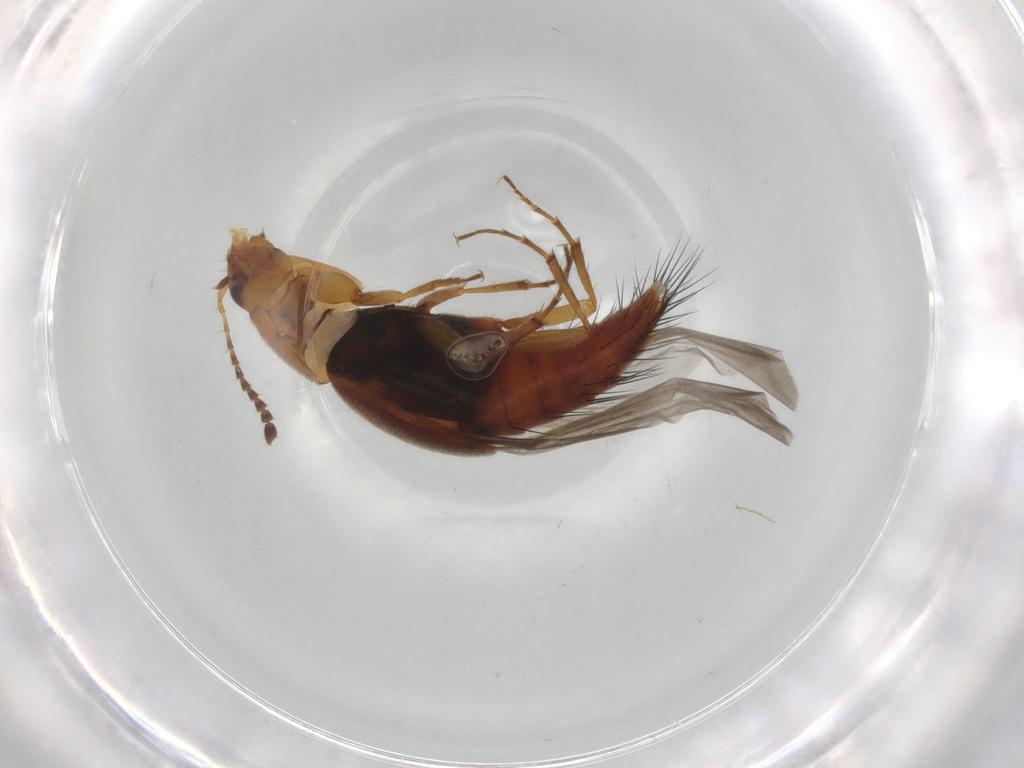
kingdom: Animalia
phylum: Arthropoda
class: Insecta
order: Coleoptera
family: Staphylinidae
